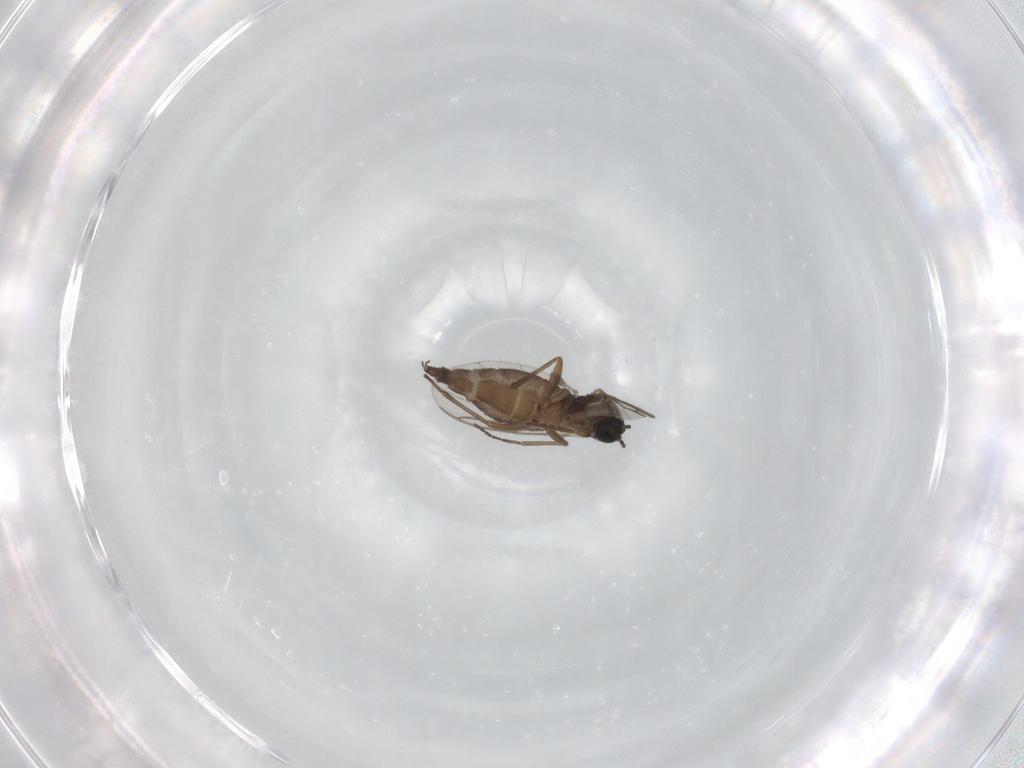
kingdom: Animalia
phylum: Arthropoda
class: Insecta
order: Diptera
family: Sciaridae
